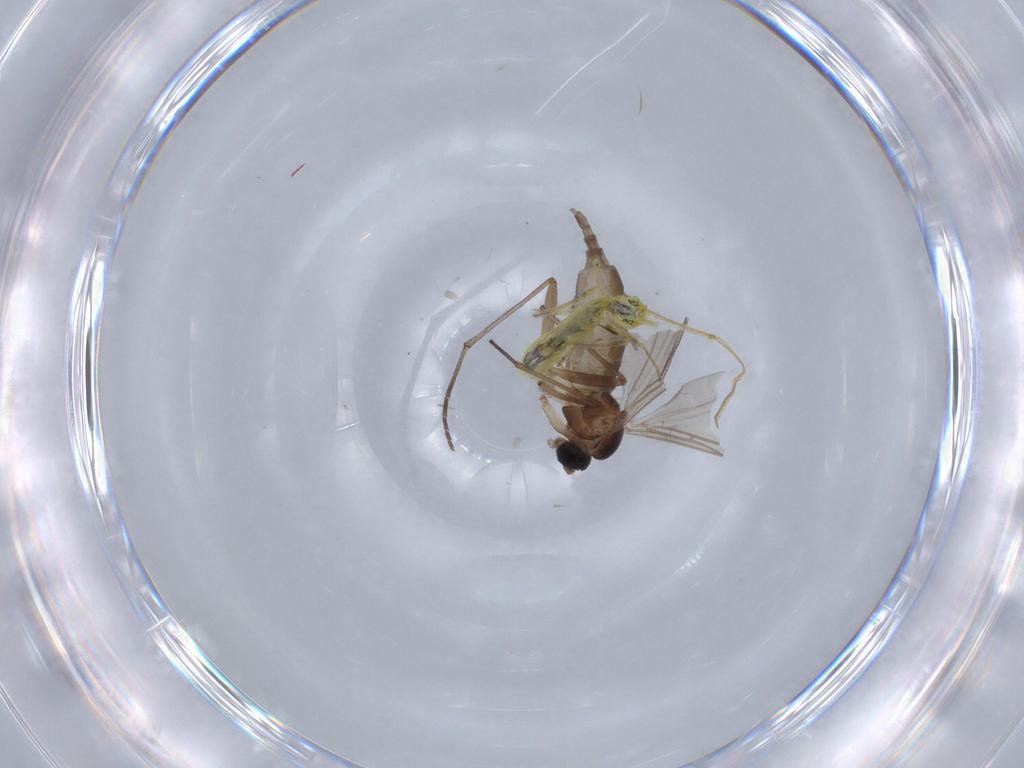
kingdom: Animalia
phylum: Arthropoda
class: Insecta
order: Diptera
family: Sciaridae
